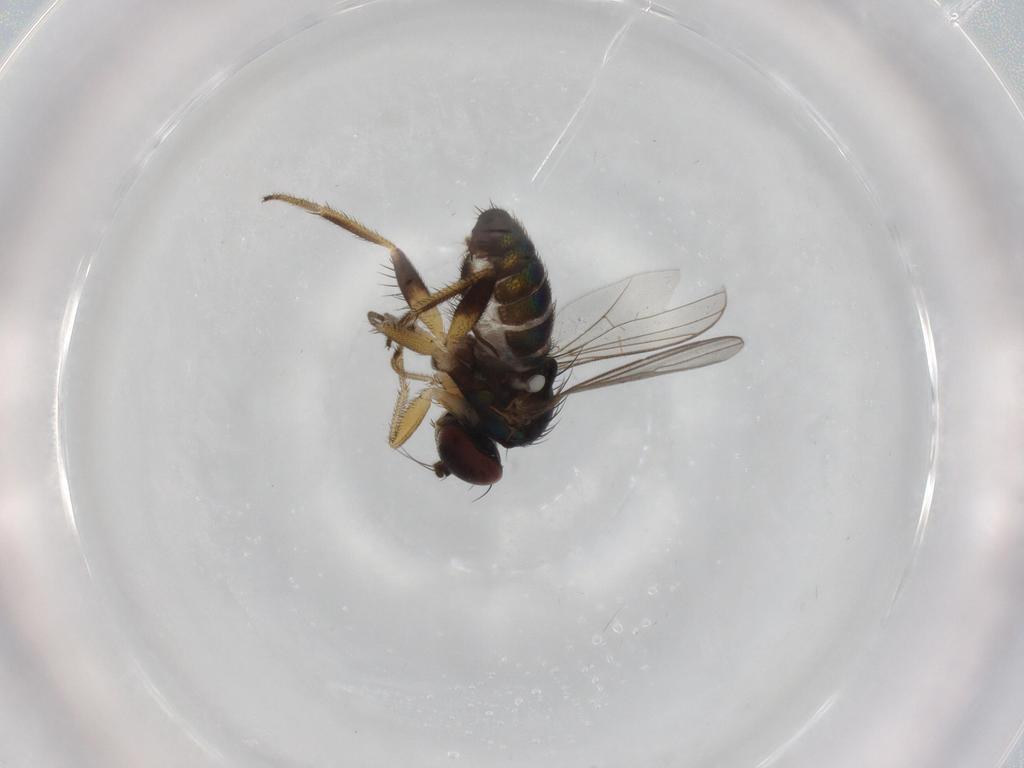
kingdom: Animalia
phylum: Arthropoda
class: Insecta
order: Diptera
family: Dolichopodidae
